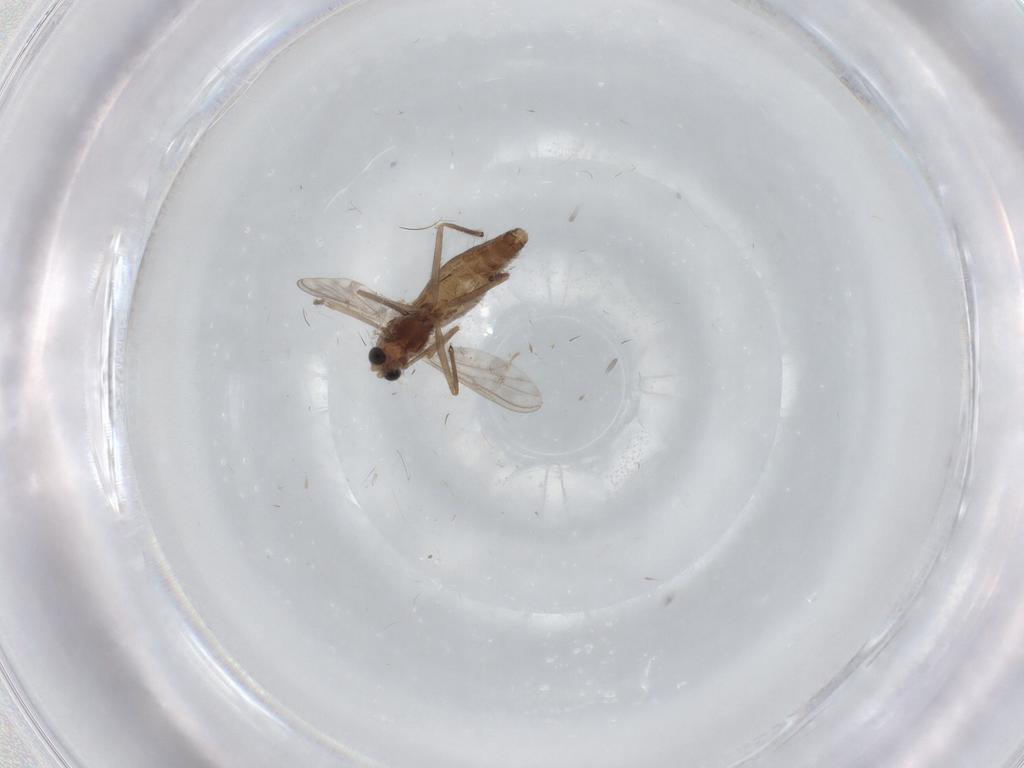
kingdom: Animalia
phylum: Arthropoda
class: Insecta
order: Diptera
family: Chironomidae
